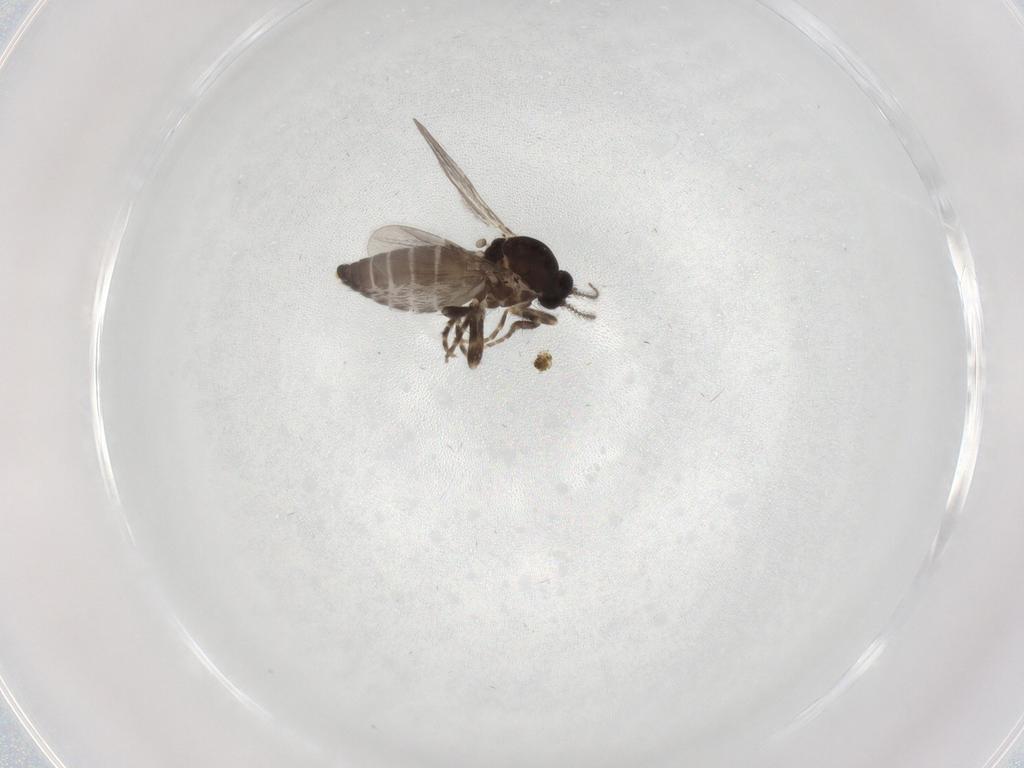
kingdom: Animalia
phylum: Arthropoda
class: Insecta
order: Diptera
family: Ceratopogonidae
